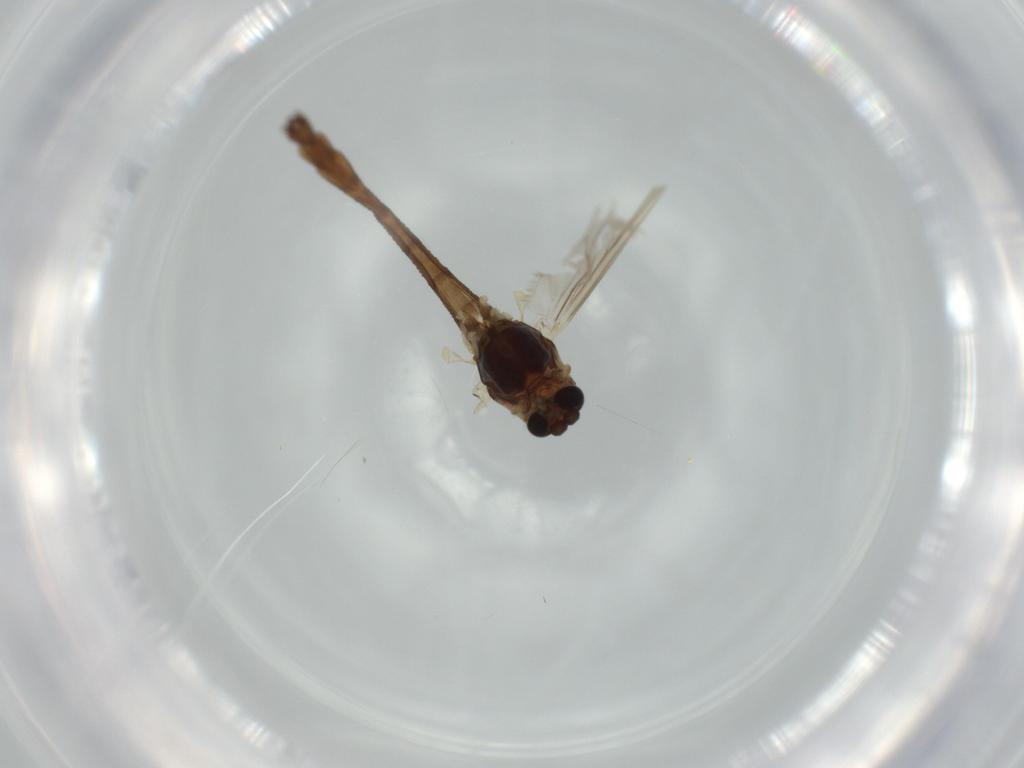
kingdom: Animalia
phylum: Arthropoda
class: Insecta
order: Diptera
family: Chironomidae
